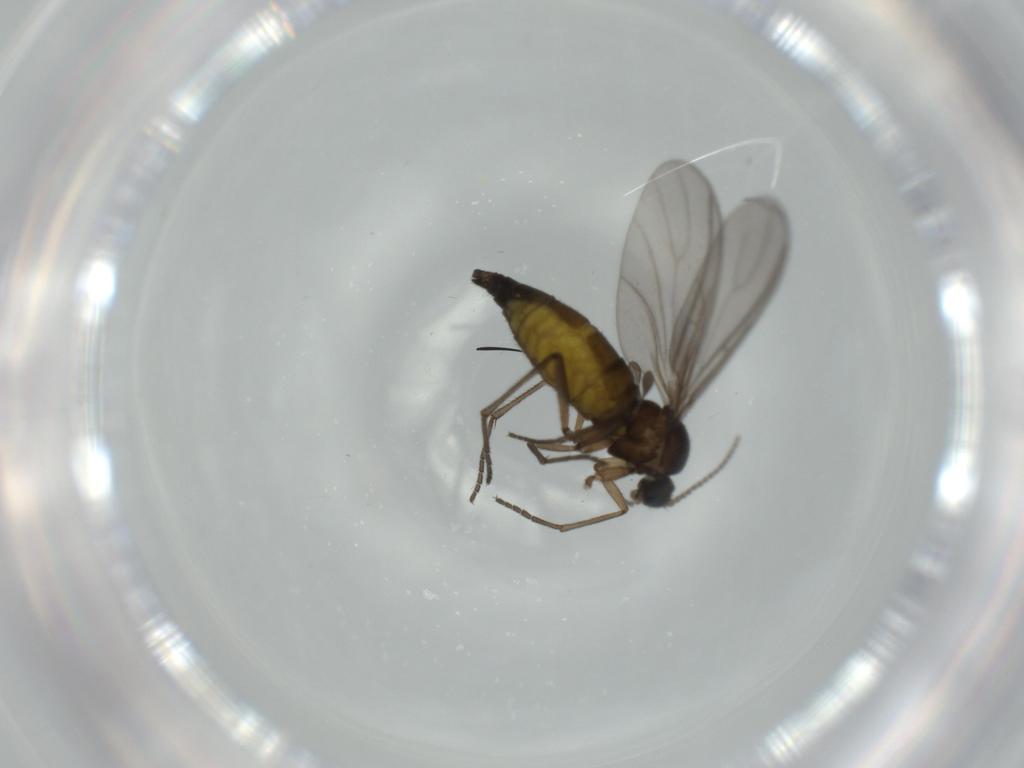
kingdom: Animalia
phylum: Arthropoda
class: Insecta
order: Diptera
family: Sciaridae
